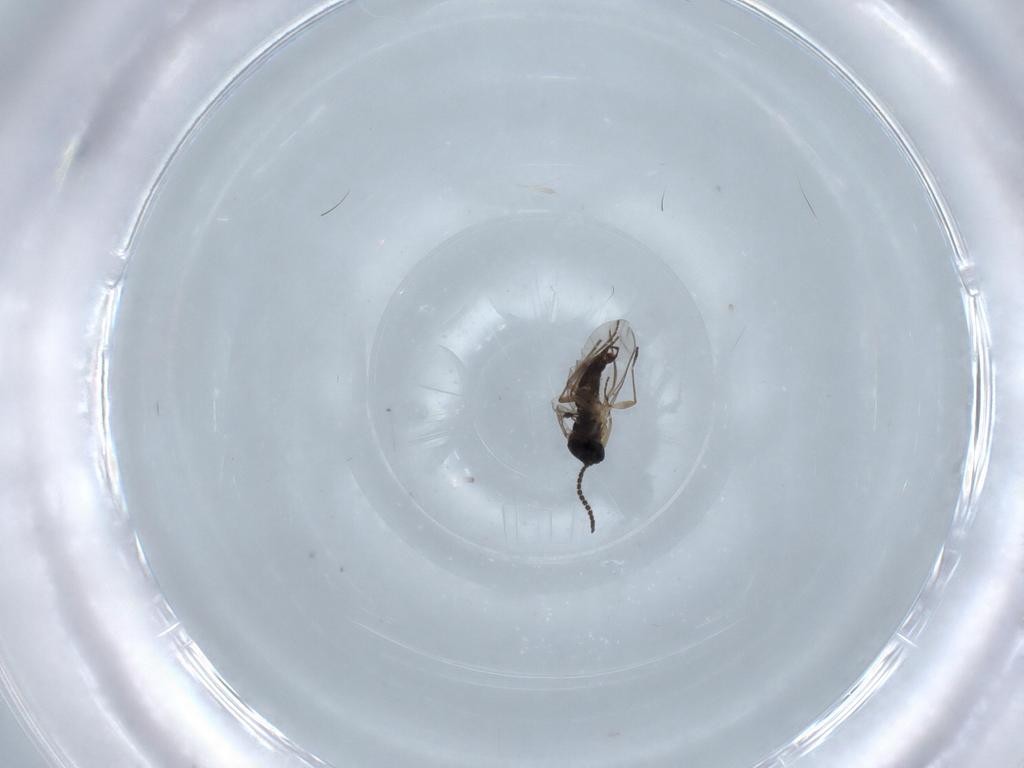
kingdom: Animalia
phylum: Arthropoda
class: Insecta
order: Diptera
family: Sciaridae
